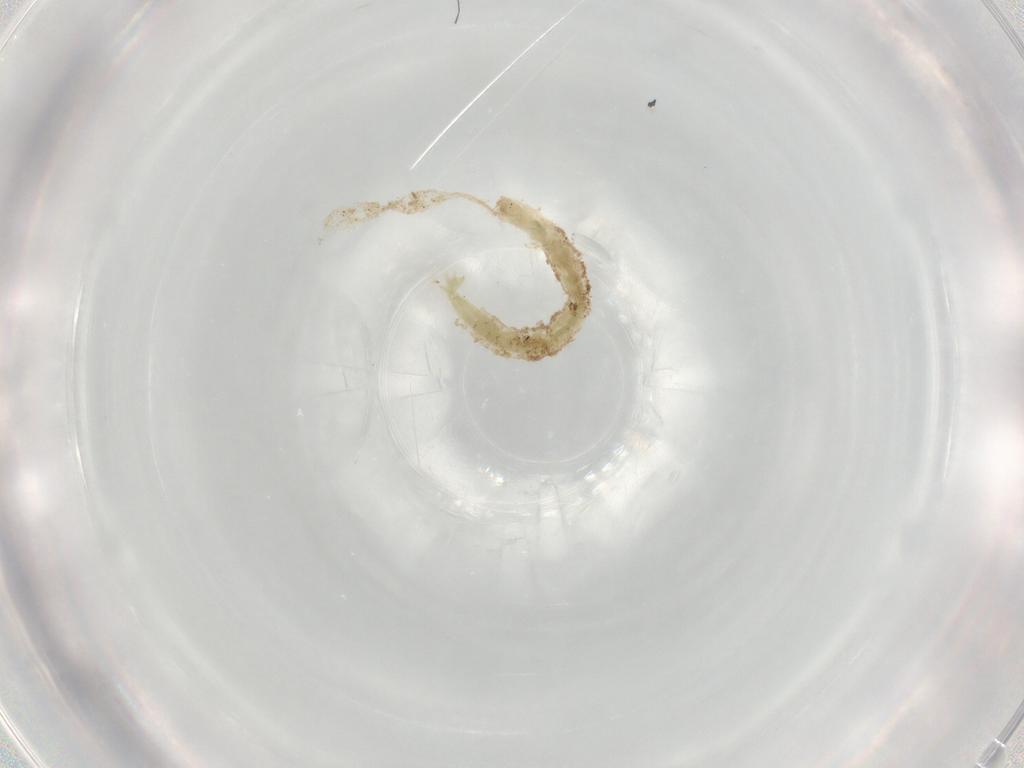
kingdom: Animalia
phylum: Arthropoda
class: Insecta
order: Diptera
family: Chironomidae
